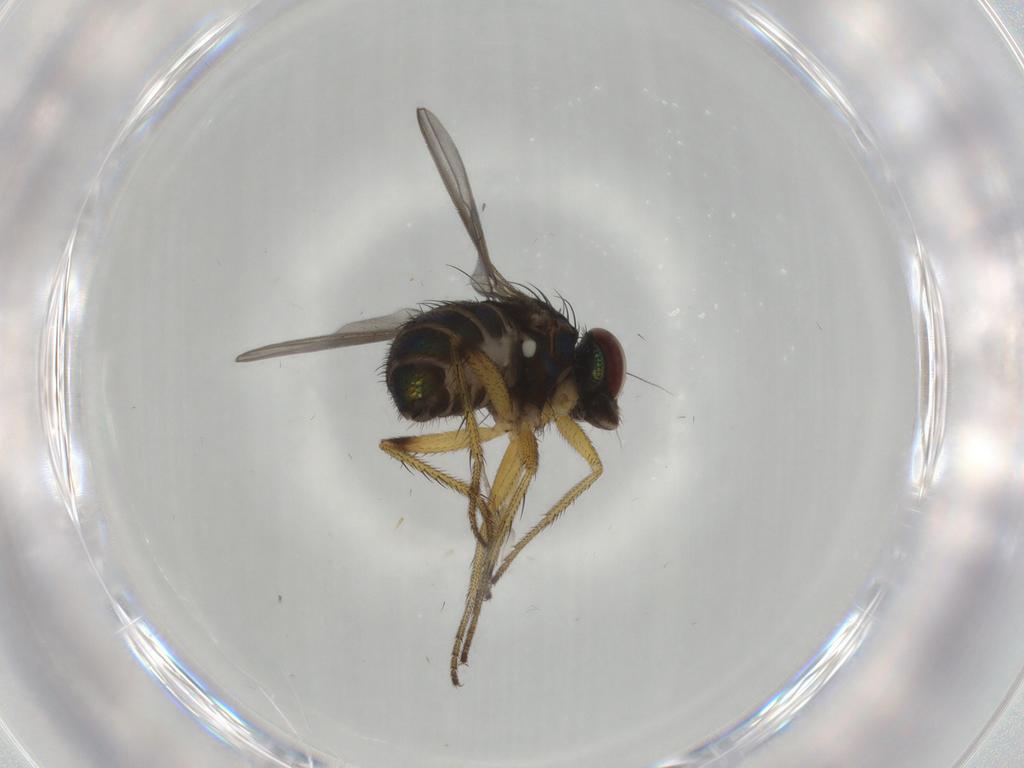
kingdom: Animalia
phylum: Arthropoda
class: Insecta
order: Diptera
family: Dolichopodidae
